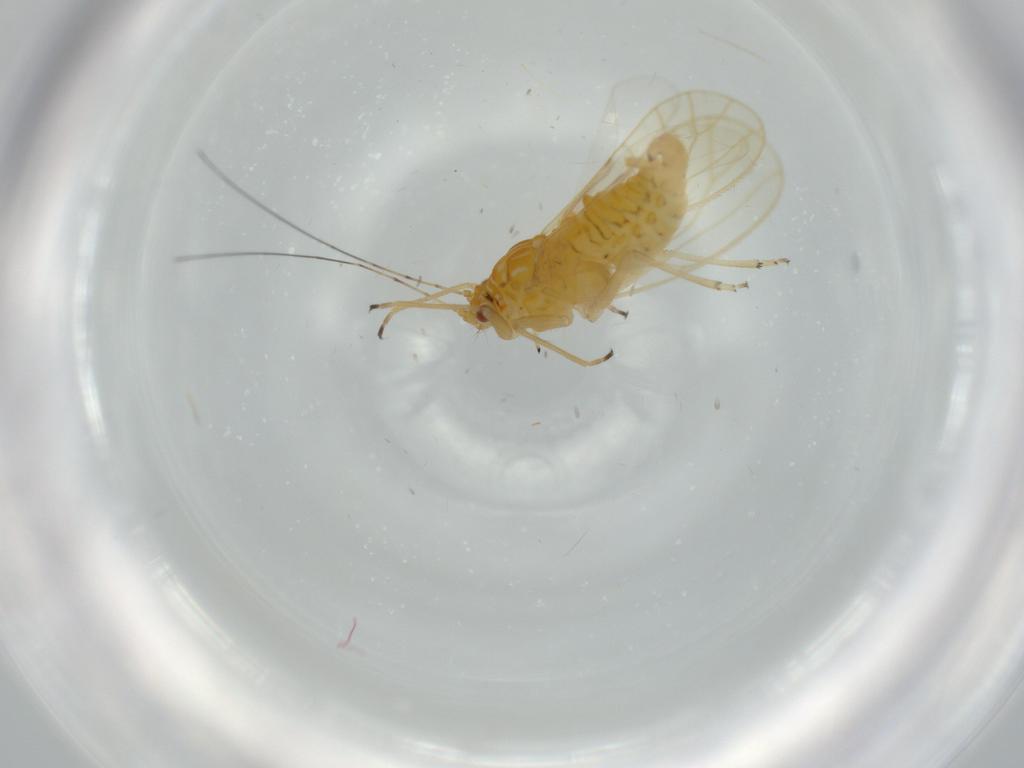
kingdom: Animalia
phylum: Arthropoda
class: Insecta
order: Hemiptera
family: Psyllidae
